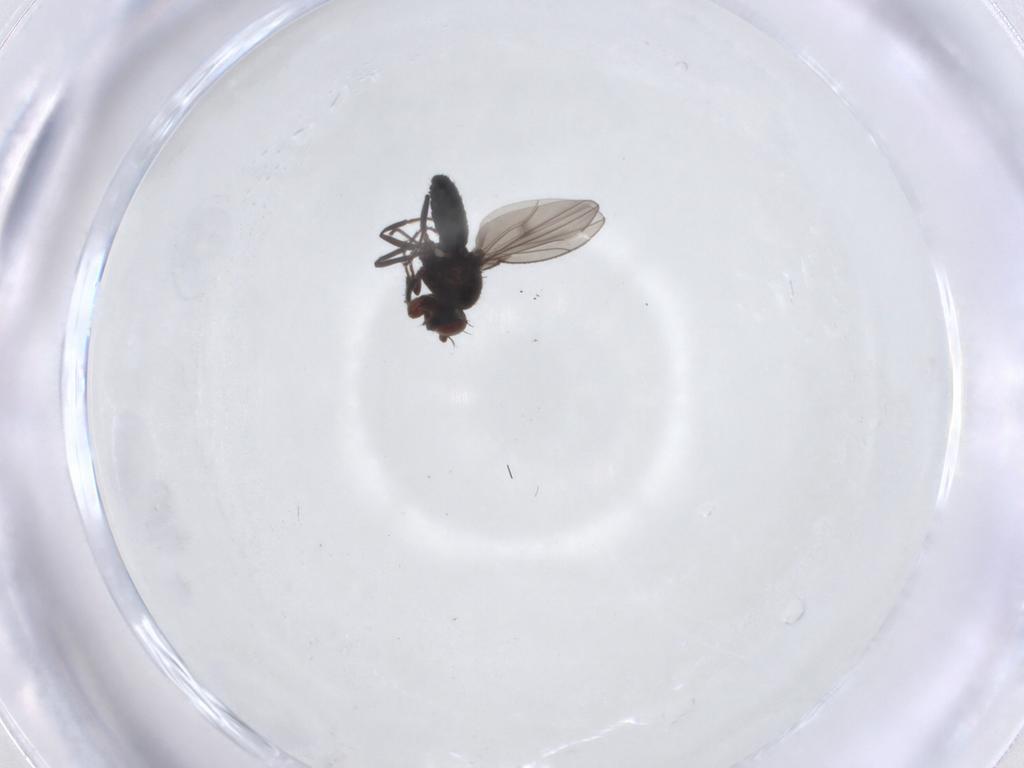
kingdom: Animalia
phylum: Arthropoda
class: Insecta
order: Diptera
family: Ephydridae
